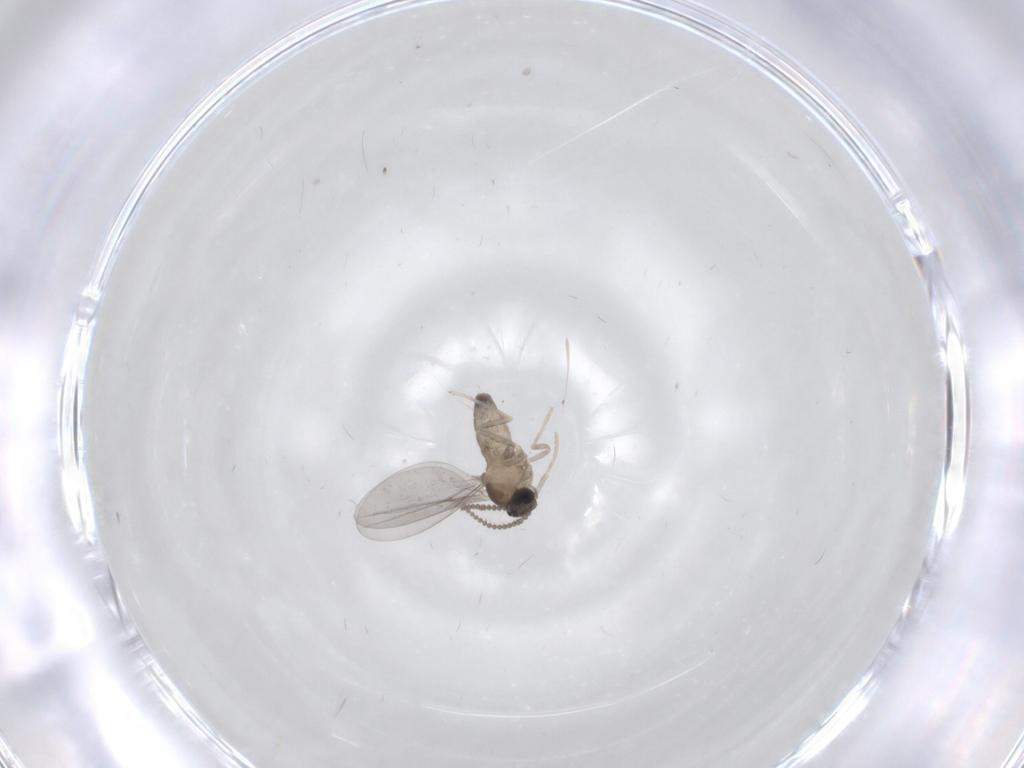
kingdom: Animalia
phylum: Arthropoda
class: Insecta
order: Diptera
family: Cecidomyiidae
